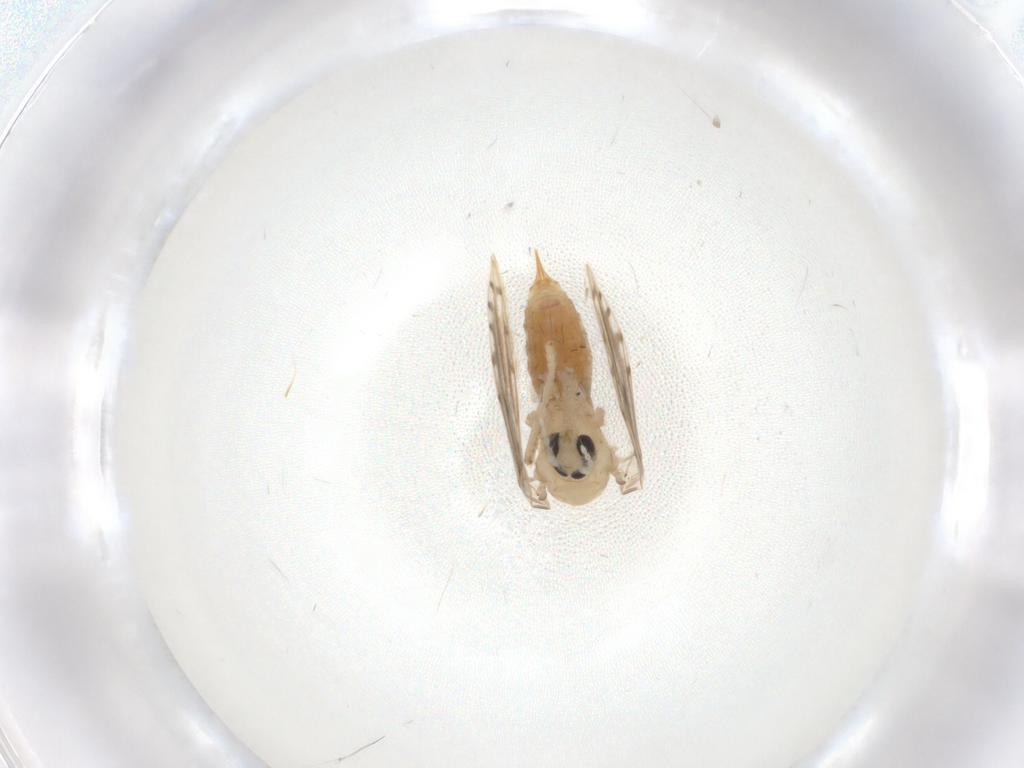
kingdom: Animalia
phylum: Arthropoda
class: Insecta
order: Diptera
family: Psychodidae
